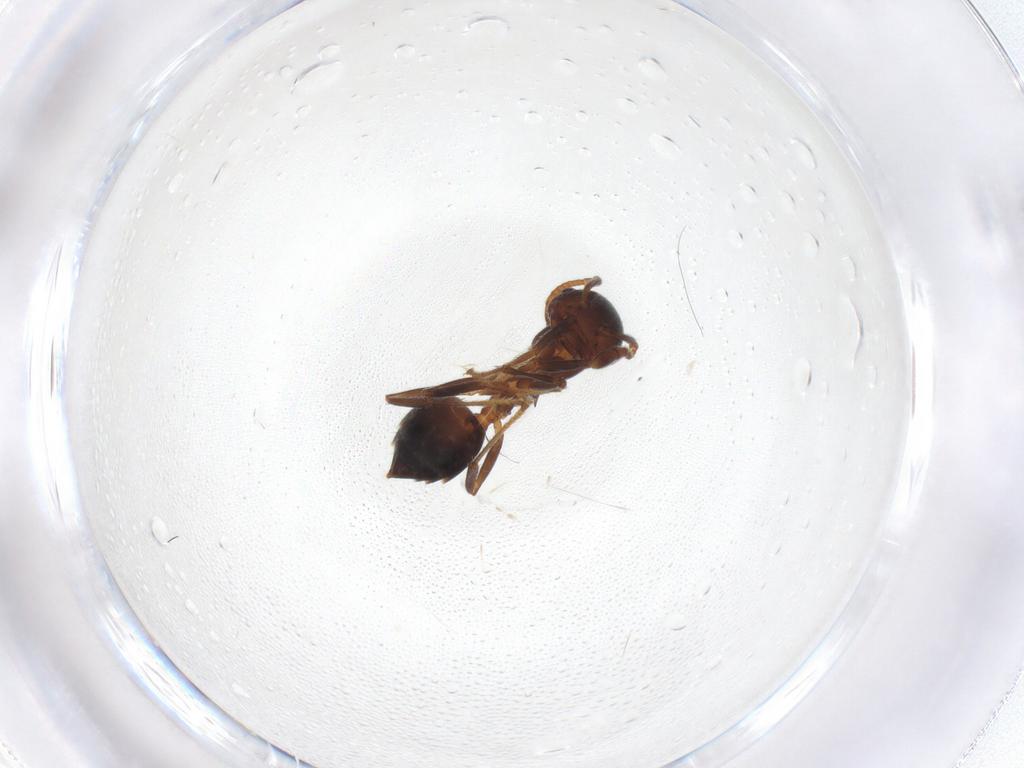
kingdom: Animalia
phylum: Arthropoda
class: Insecta
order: Hymenoptera
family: Formicidae
